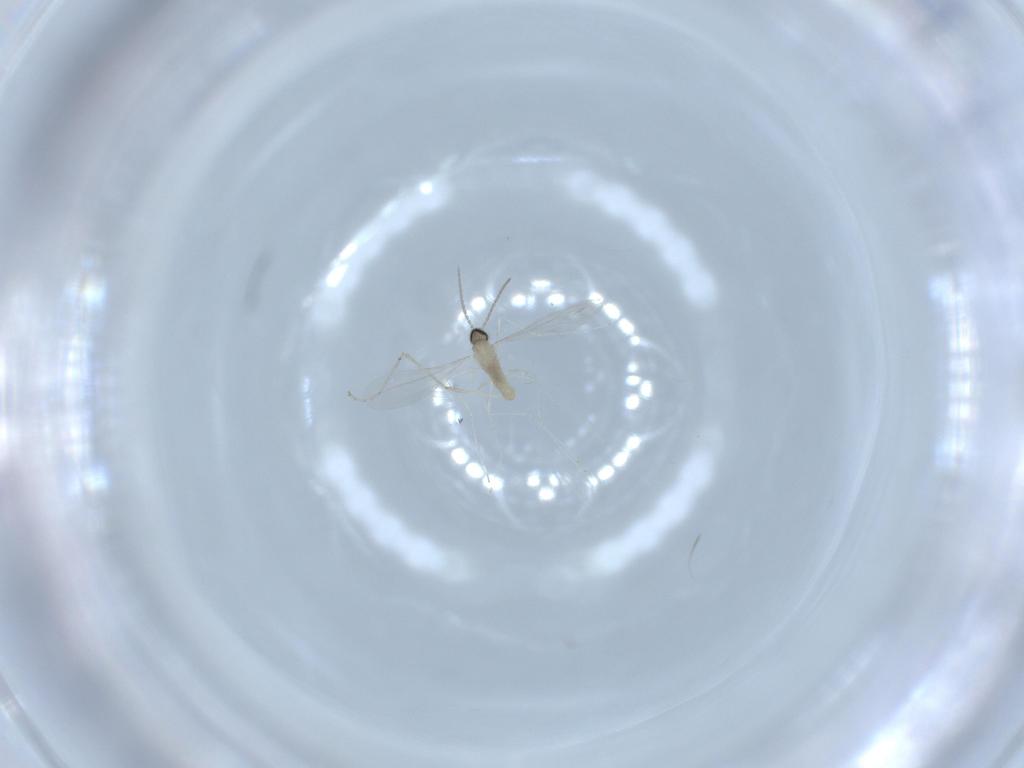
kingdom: Animalia
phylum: Arthropoda
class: Insecta
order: Diptera
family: Cecidomyiidae
